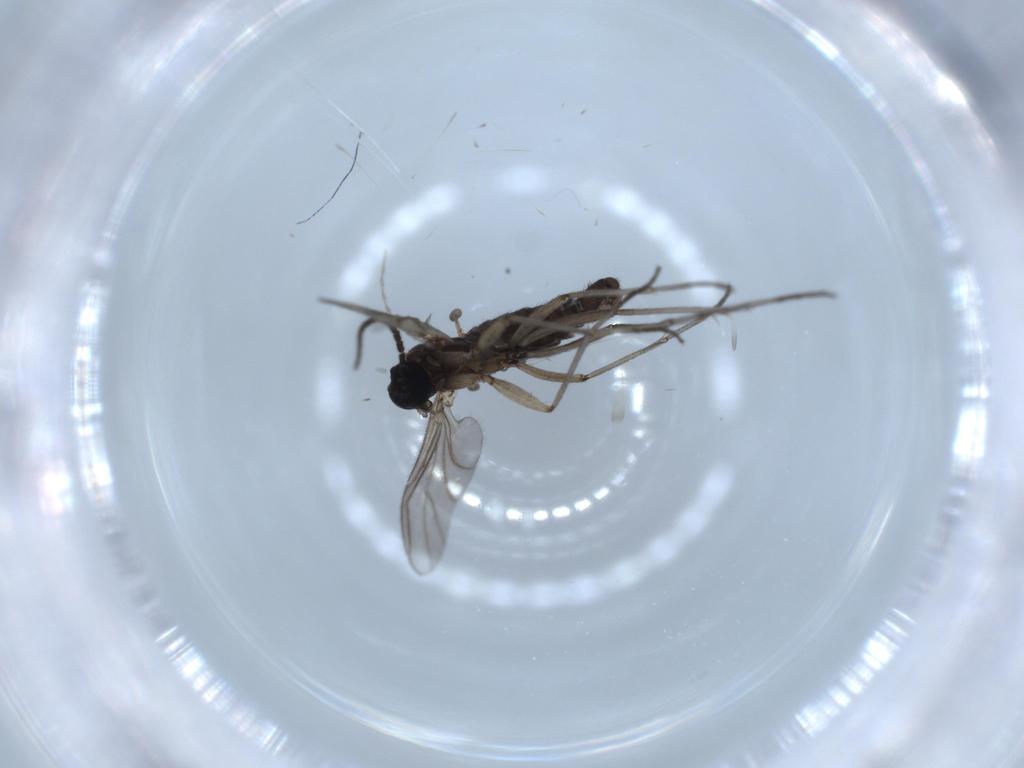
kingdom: Animalia
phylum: Arthropoda
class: Insecta
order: Diptera
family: Cecidomyiidae
